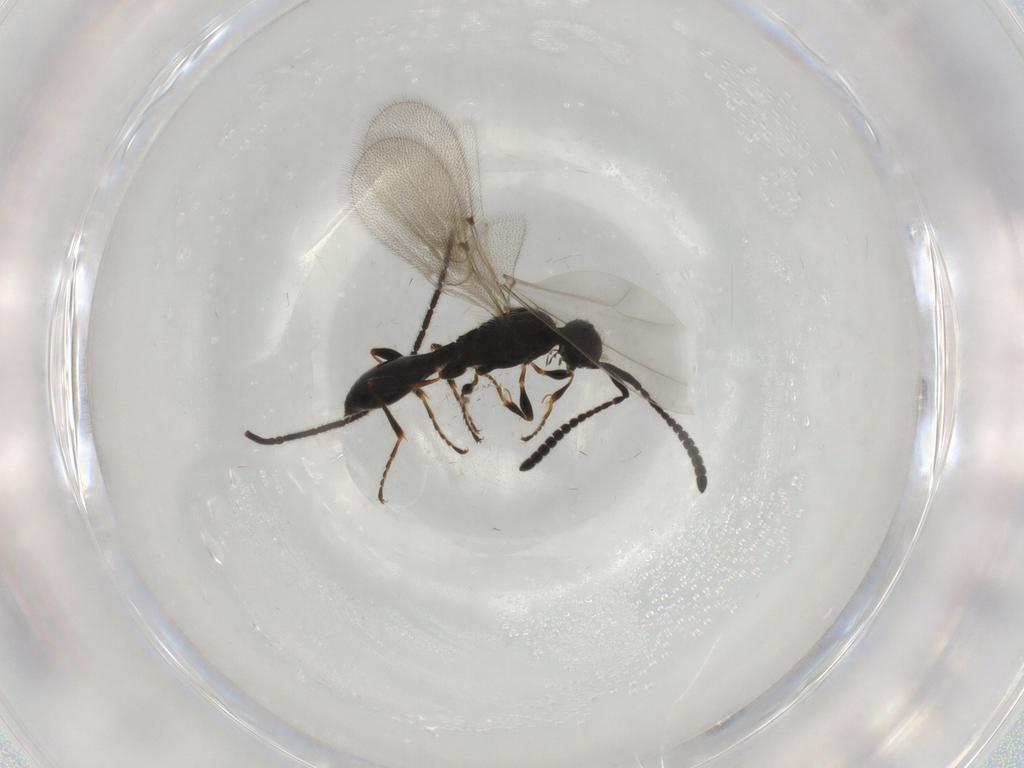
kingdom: Animalia
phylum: Arthropoda
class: Insecta
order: Hymenoptera
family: Diapriidae
